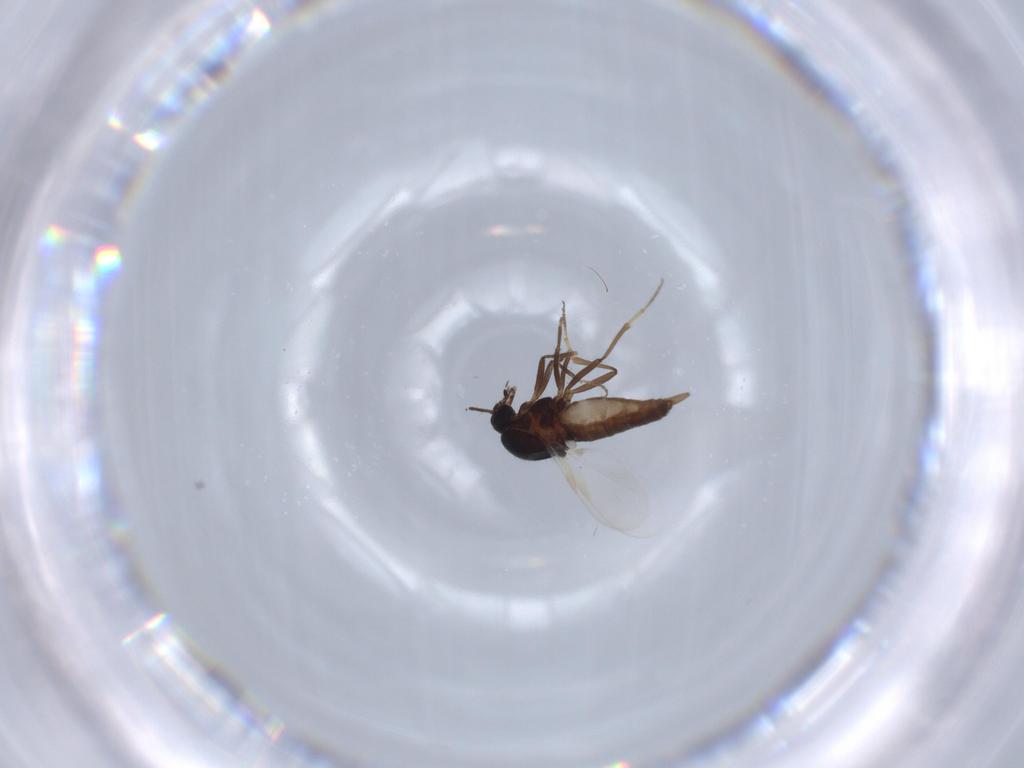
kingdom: Animalia
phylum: Arthropoda
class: Insecta
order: Diptera
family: Ceratopogonidae
